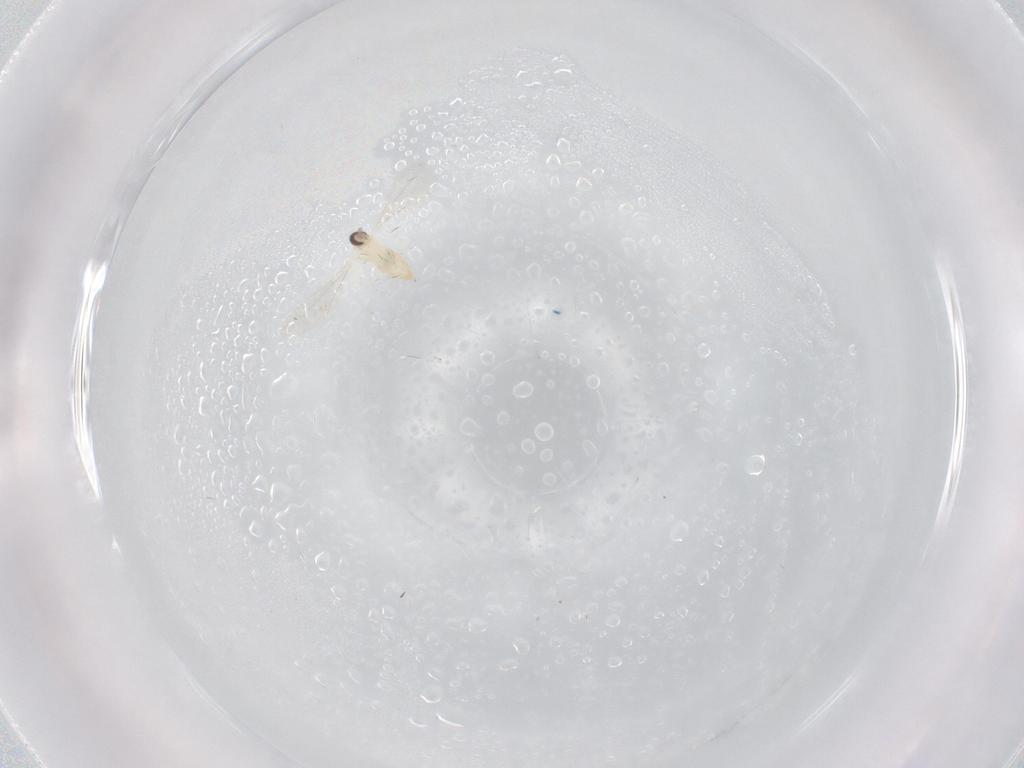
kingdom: Animalia
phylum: Arthropoda
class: Insecta
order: Diptera
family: Cecidomyiidae
